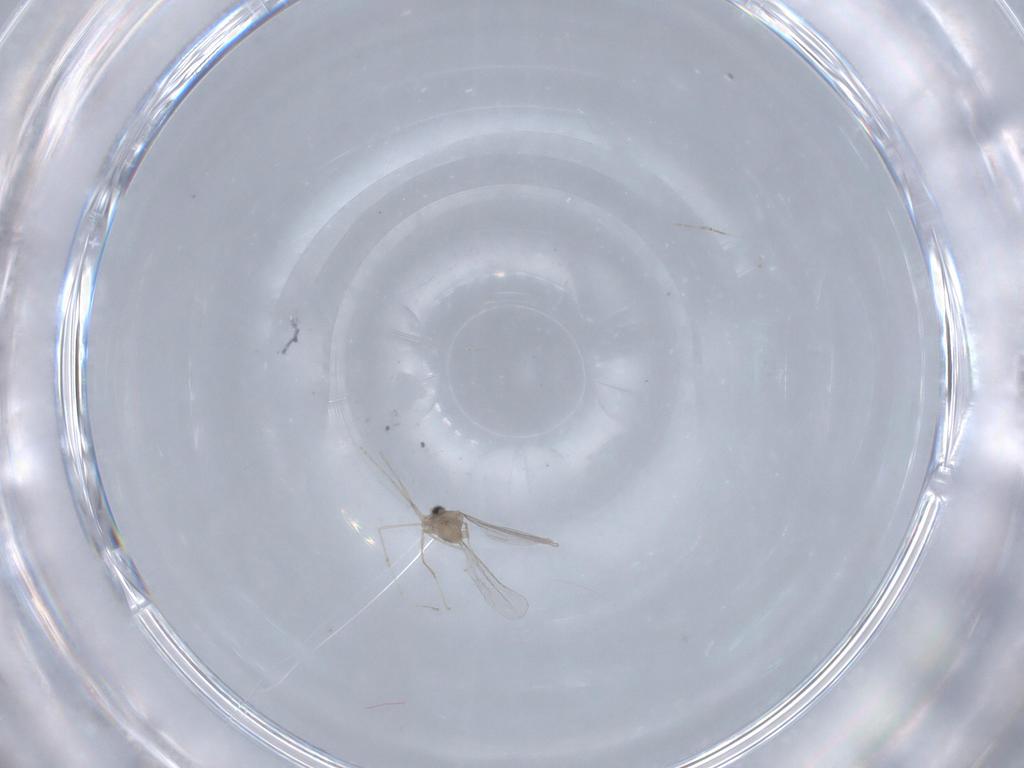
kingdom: Animalia
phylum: Arthropoda
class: Insecta
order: Diptera
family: Cecidomyiidae
